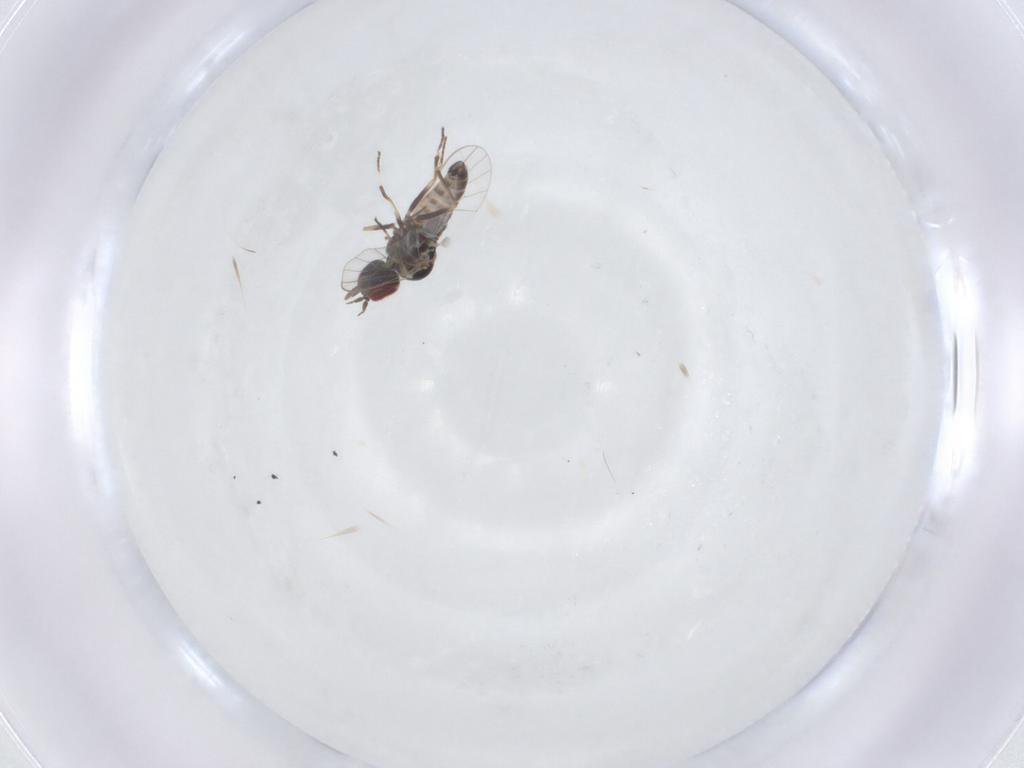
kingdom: Animalia
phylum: Arthropoda
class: Insecta
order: Diptera
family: Mythicomyiidae
